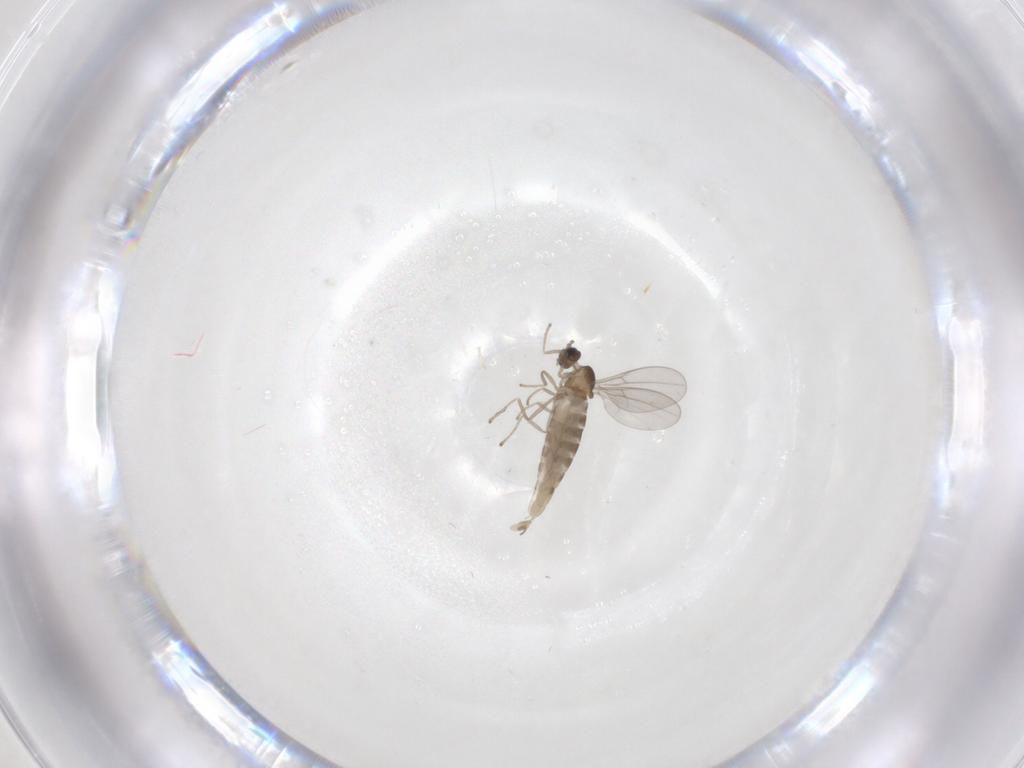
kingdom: Animalia
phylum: Arthropoda
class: Insecta
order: Diptera
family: Cecidomyiidae
